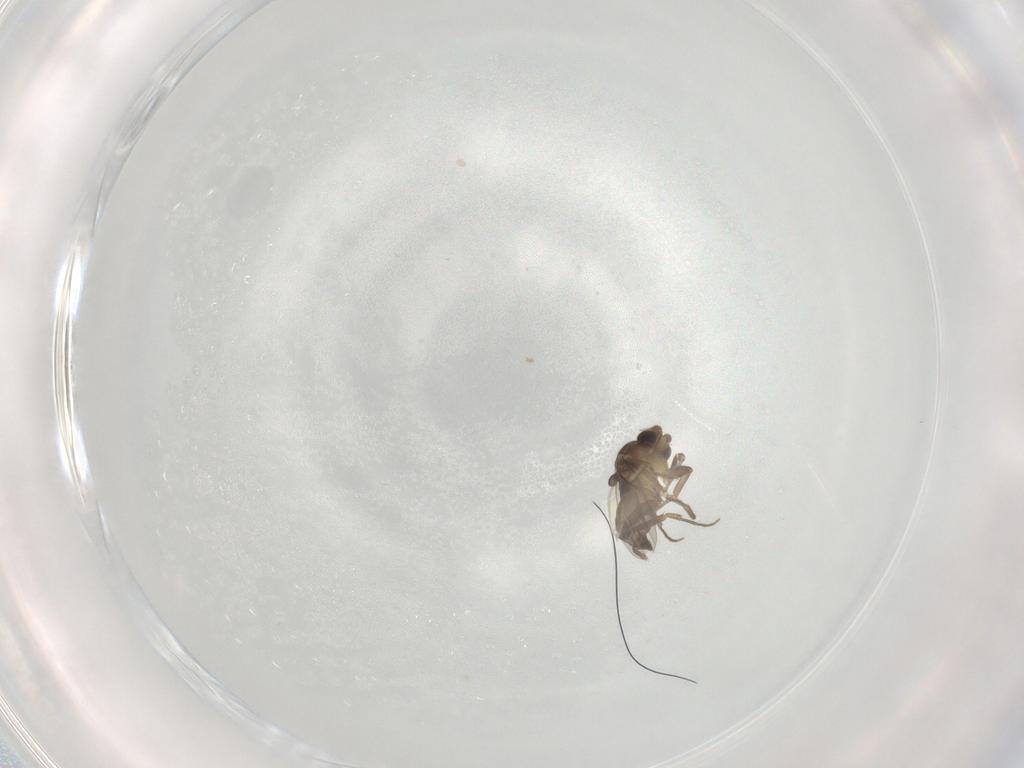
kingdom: Animalia
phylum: Arthropoda
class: Insecta
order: Diptera
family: Phoridae
